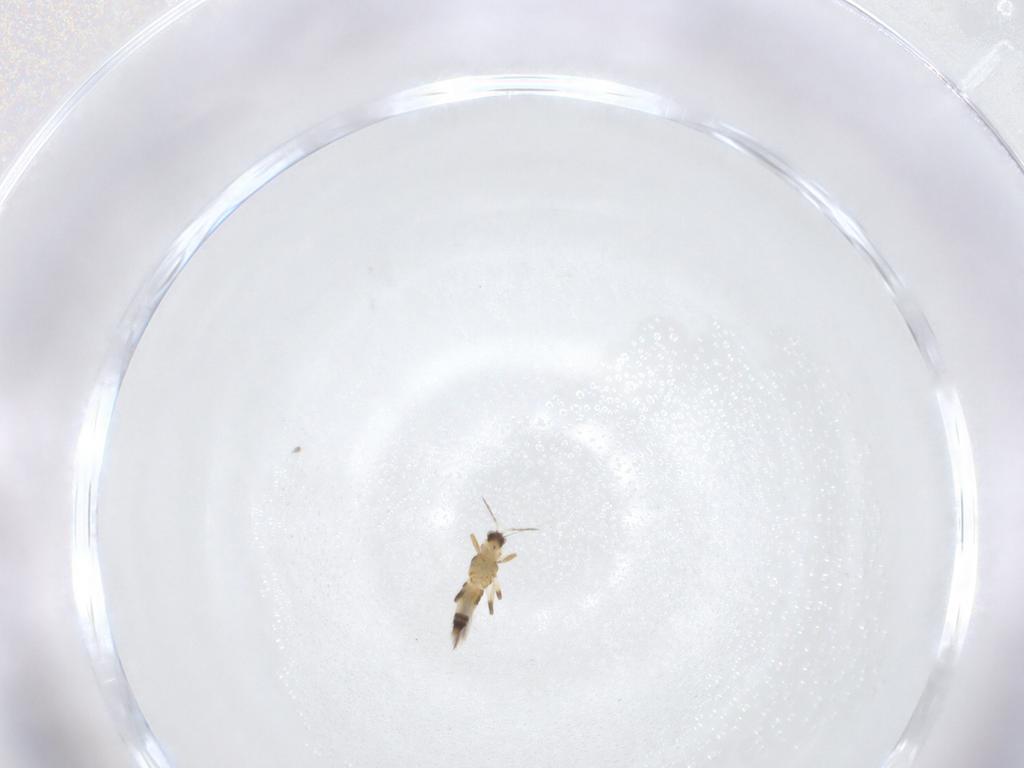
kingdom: Animalia
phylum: Arthropoda
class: Insecta
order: Thysanoptera
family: Thripidae
